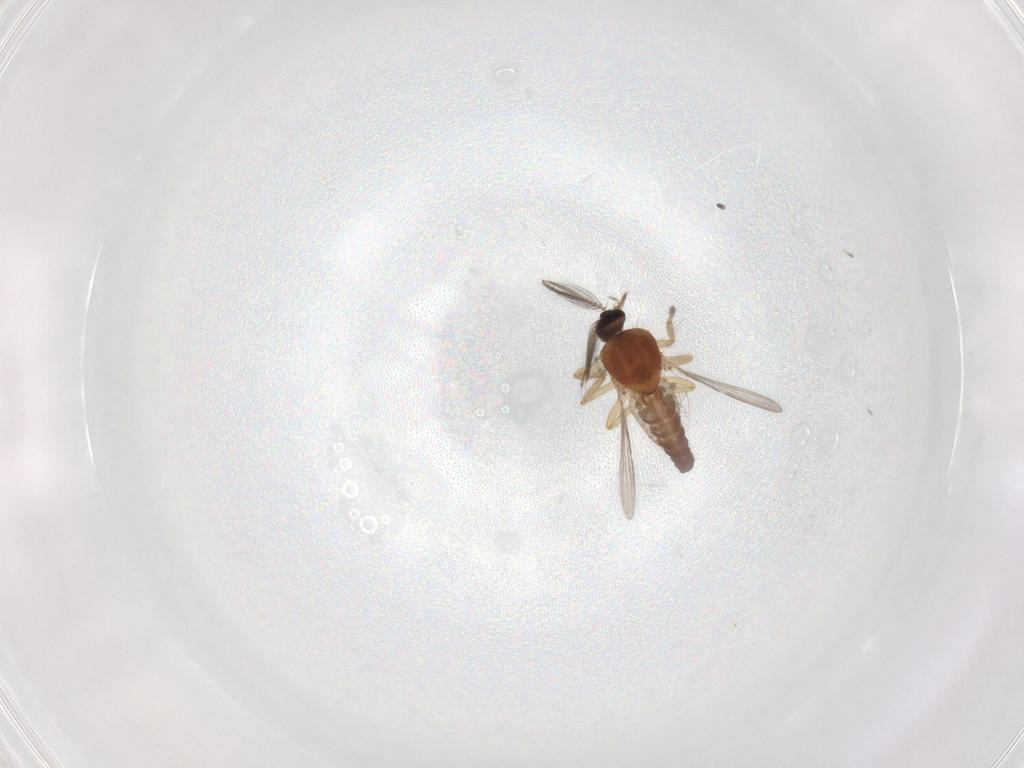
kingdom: Animalia
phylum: Arthropoda
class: Insecta
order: Diptera
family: Ceratopogonidae
